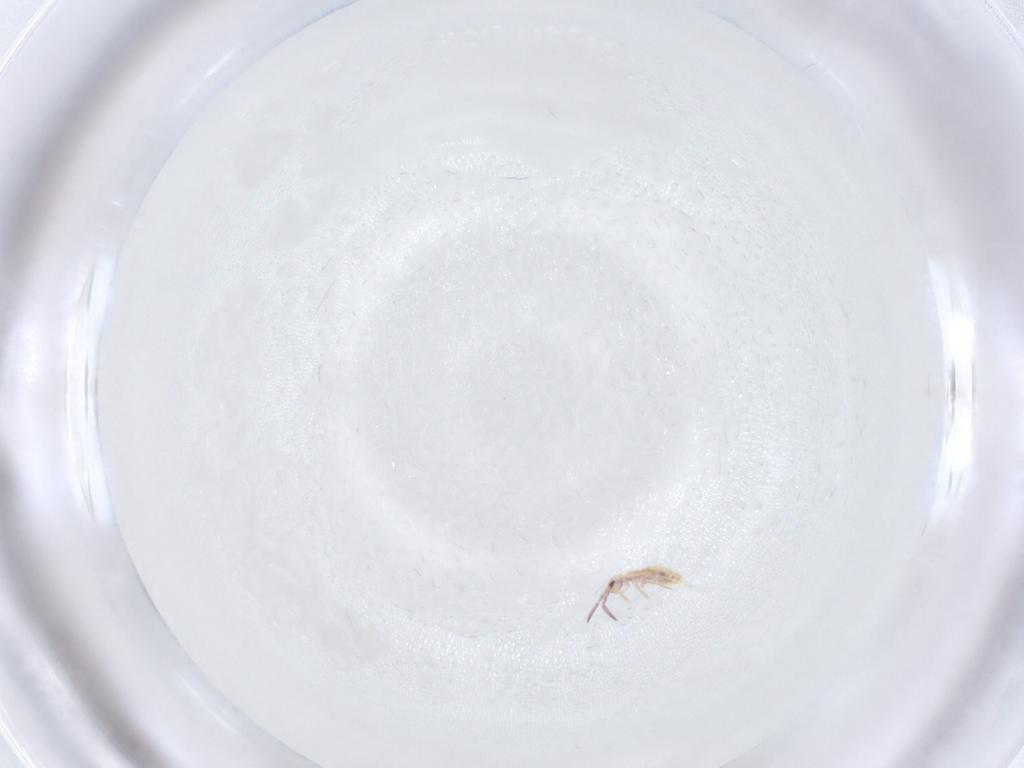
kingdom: Animalia
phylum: Arthropoda
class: Collembola
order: Entomobryomorpha
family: Entomobryidae
